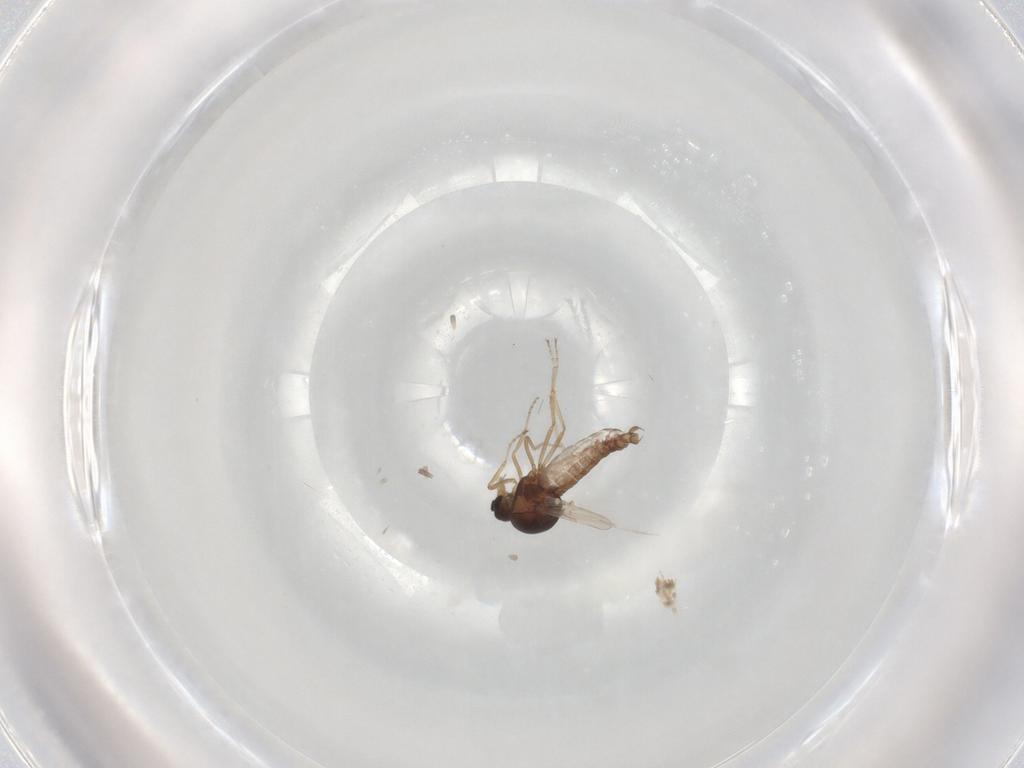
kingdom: Animalia
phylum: Arthropoda
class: Insecta
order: Diptera
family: Ceratopogonidae
